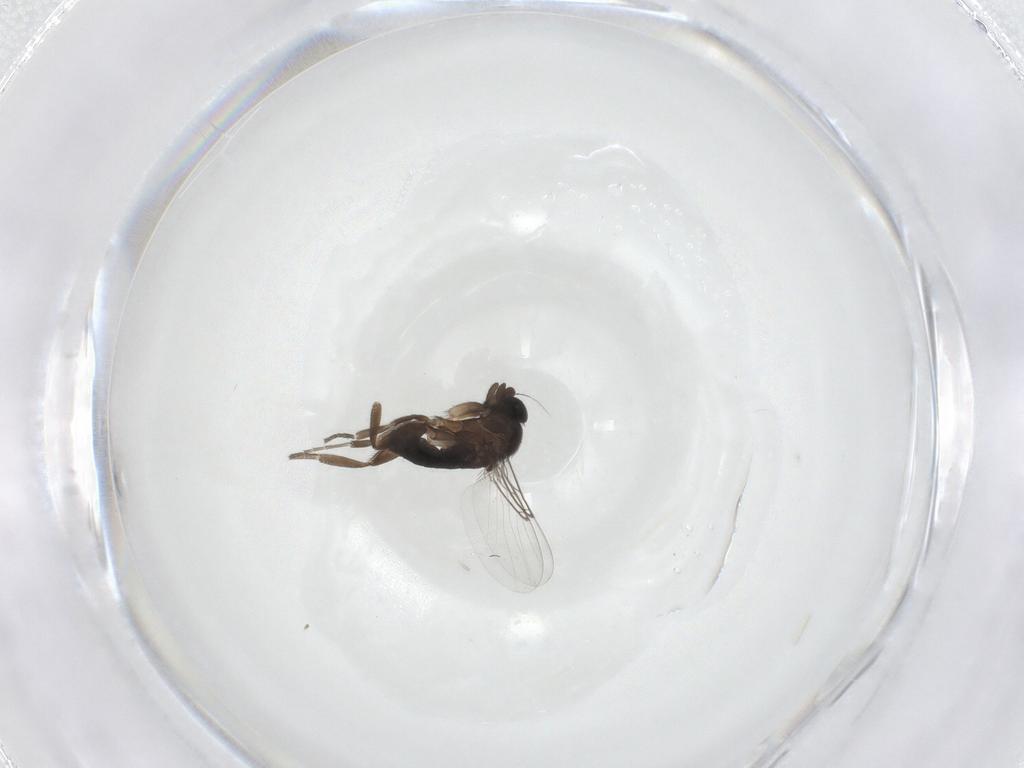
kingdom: Animalia
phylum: Arthropoda
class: Insecta
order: Diptera
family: Phoridae
